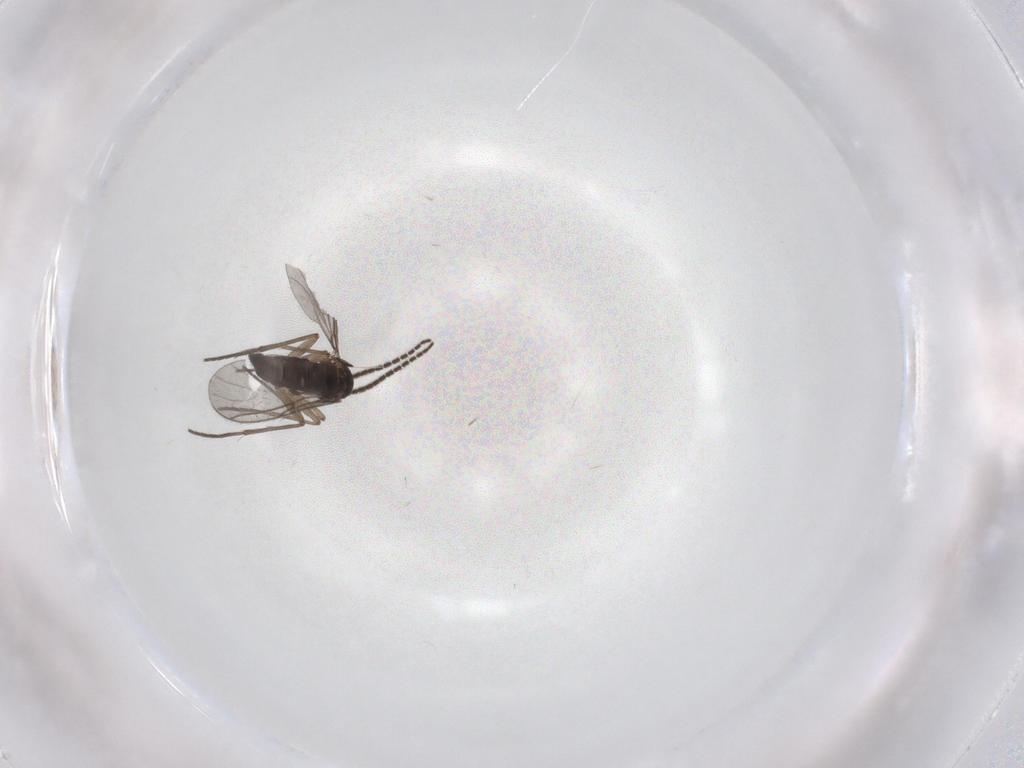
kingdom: Animalia
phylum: Arthropoda
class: Insecta
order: Diptera
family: Sciaridae
